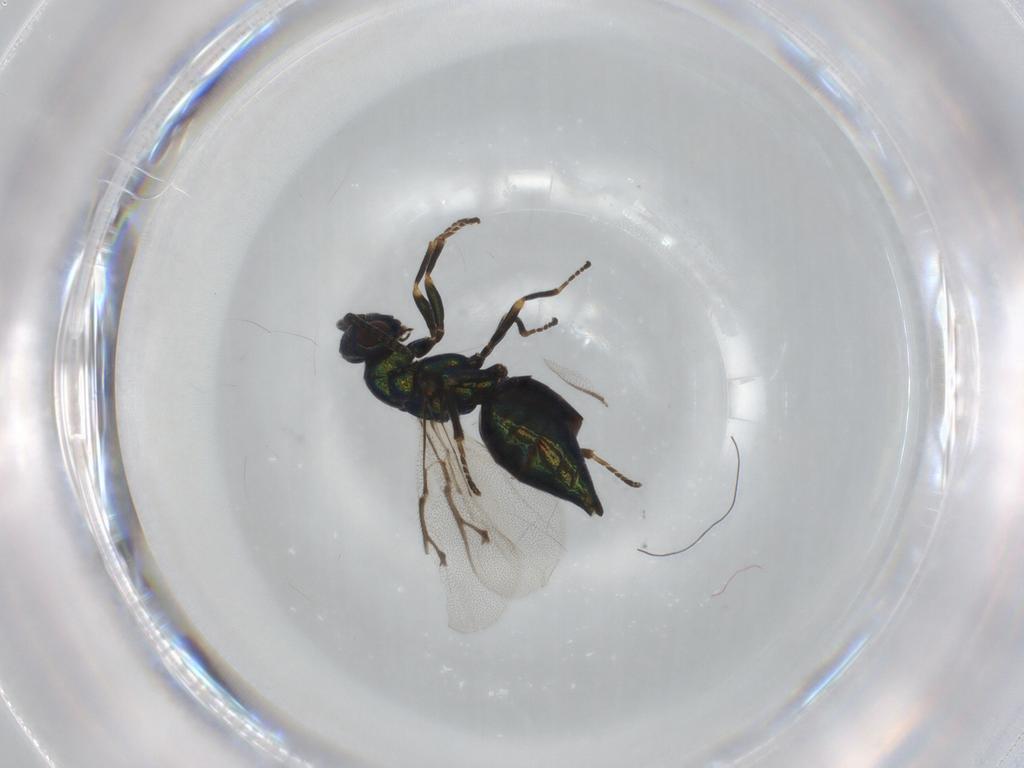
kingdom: Animalia
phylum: Arthropoda
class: Insecta
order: Hymenoptera
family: Pteromalidae
